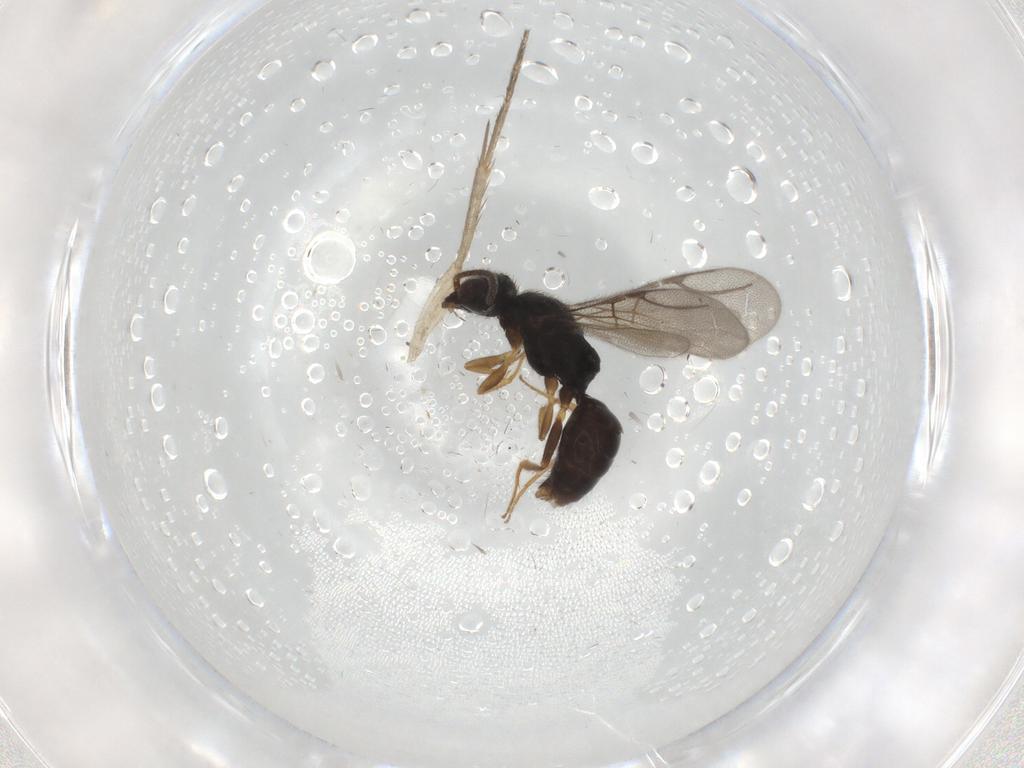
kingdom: Animalia
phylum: Arthropoda
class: Insecta
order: Hymenoptera
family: Bethylidae
